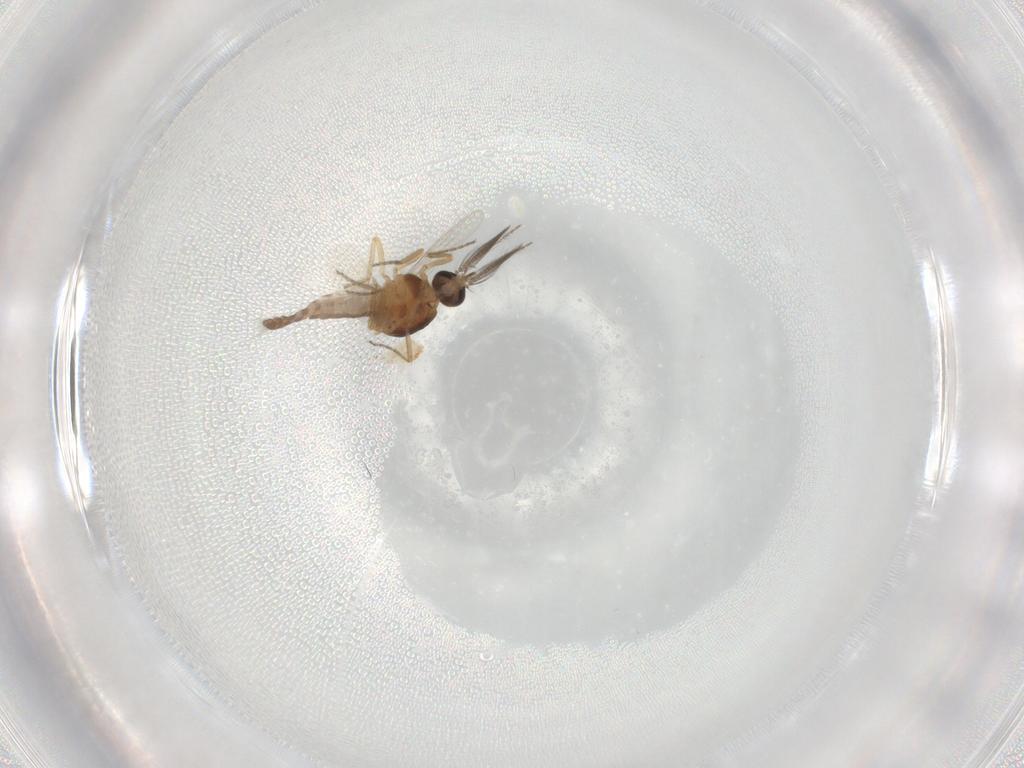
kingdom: Animalia
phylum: Arthropoda
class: Insecta
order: Diptera
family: Ceratopogonidae
